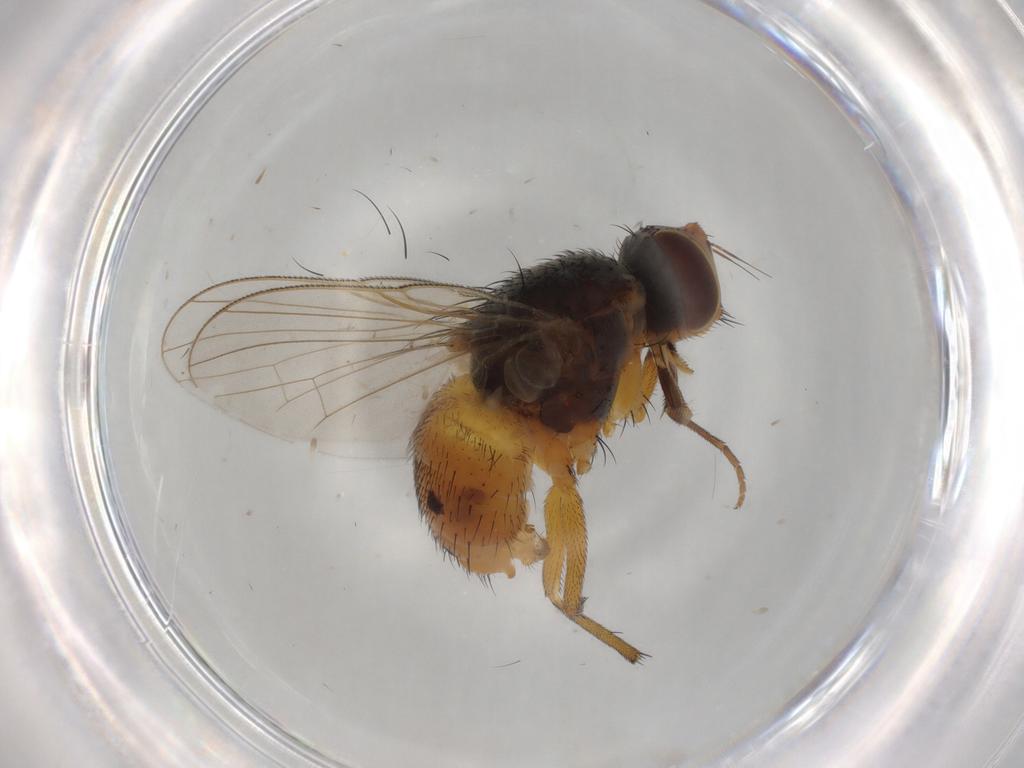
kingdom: Animalia
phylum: Arthropoda
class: Insecta
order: Diptera
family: Muscidae
